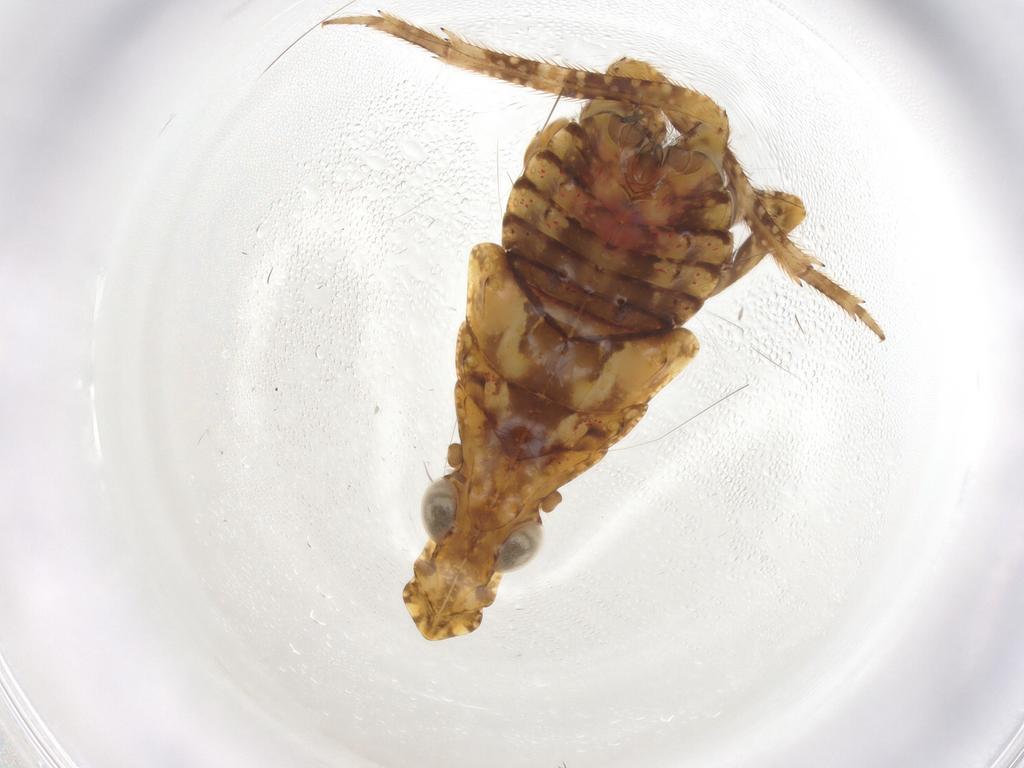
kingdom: Animalia
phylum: Arthropoda
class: Insecta
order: Hemiptera
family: Fulgoridae
